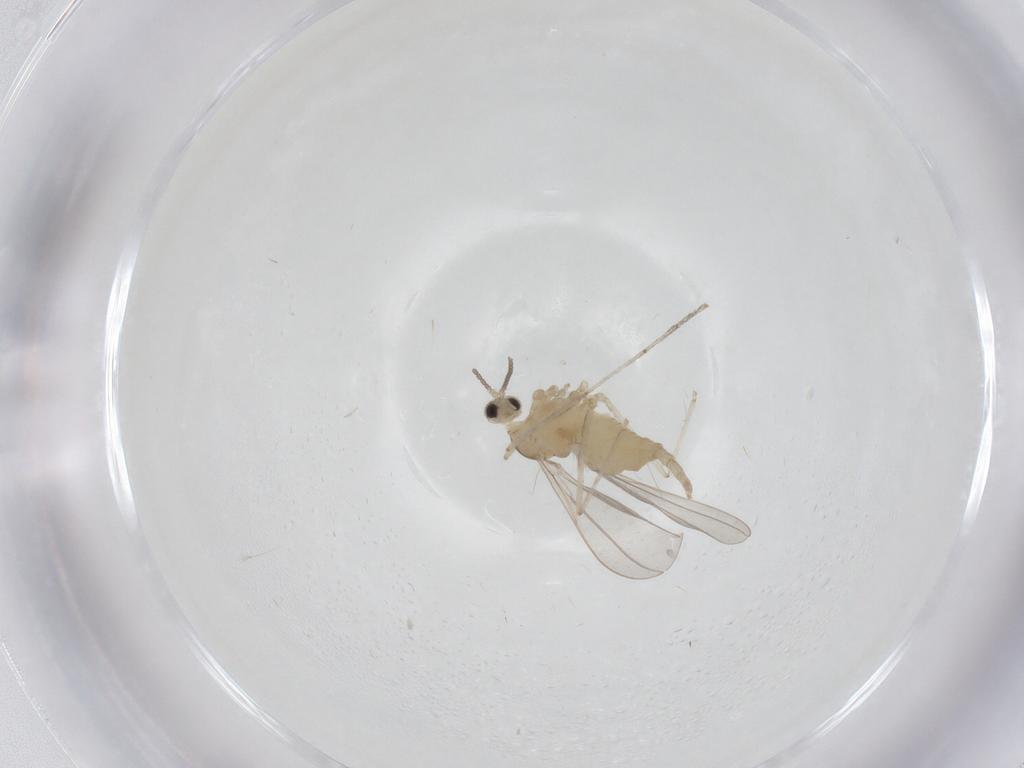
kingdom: Animalia
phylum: Arthropoda
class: Insecta
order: Diptera
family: Cecidomyiidae
